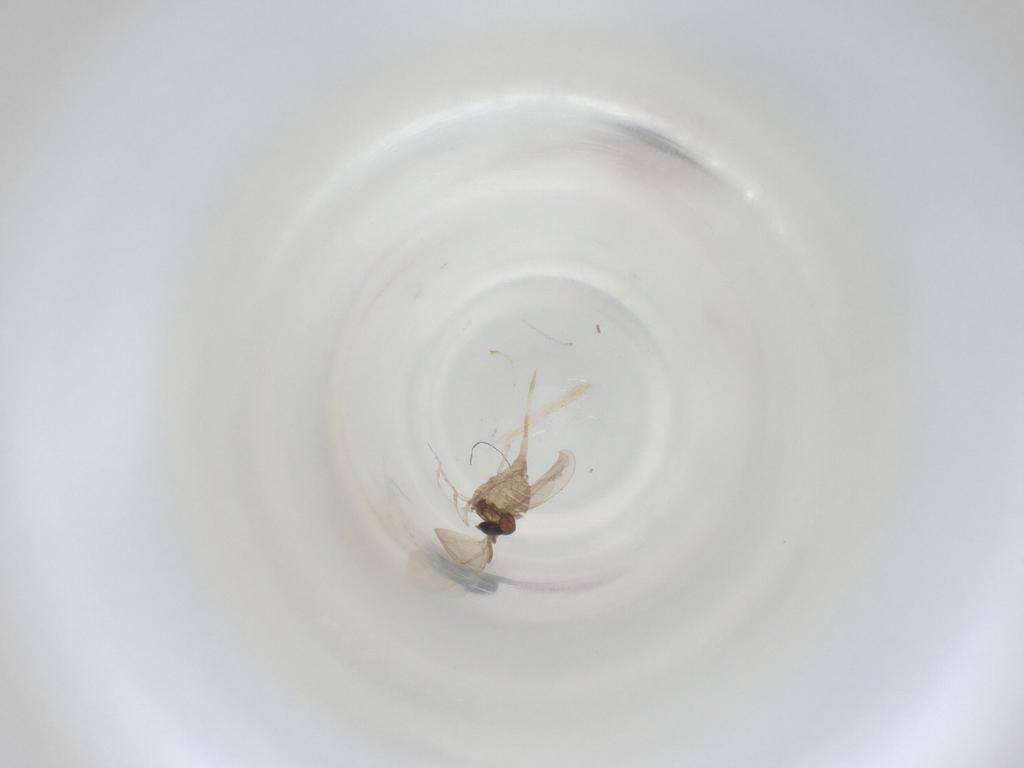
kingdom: Animalia
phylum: Arthropoda
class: Insecta
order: Diptera
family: Cecidomyiidae
